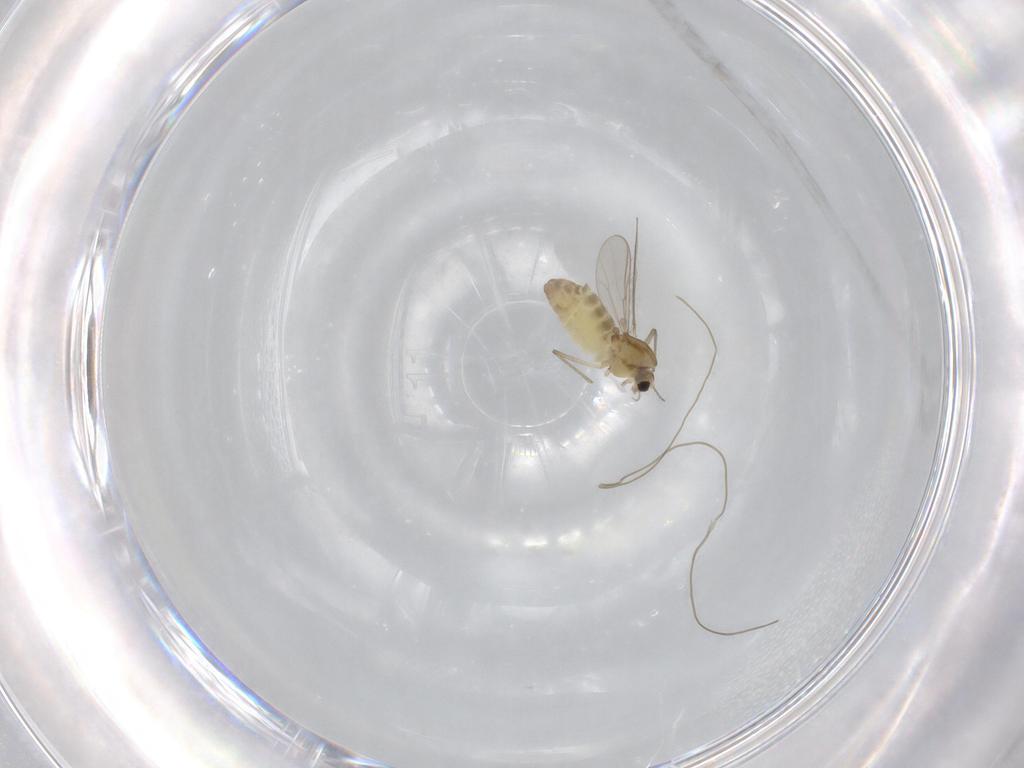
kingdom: Animalia
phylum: Arthropoda
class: Insecta
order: Diptera
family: Chironomidae
